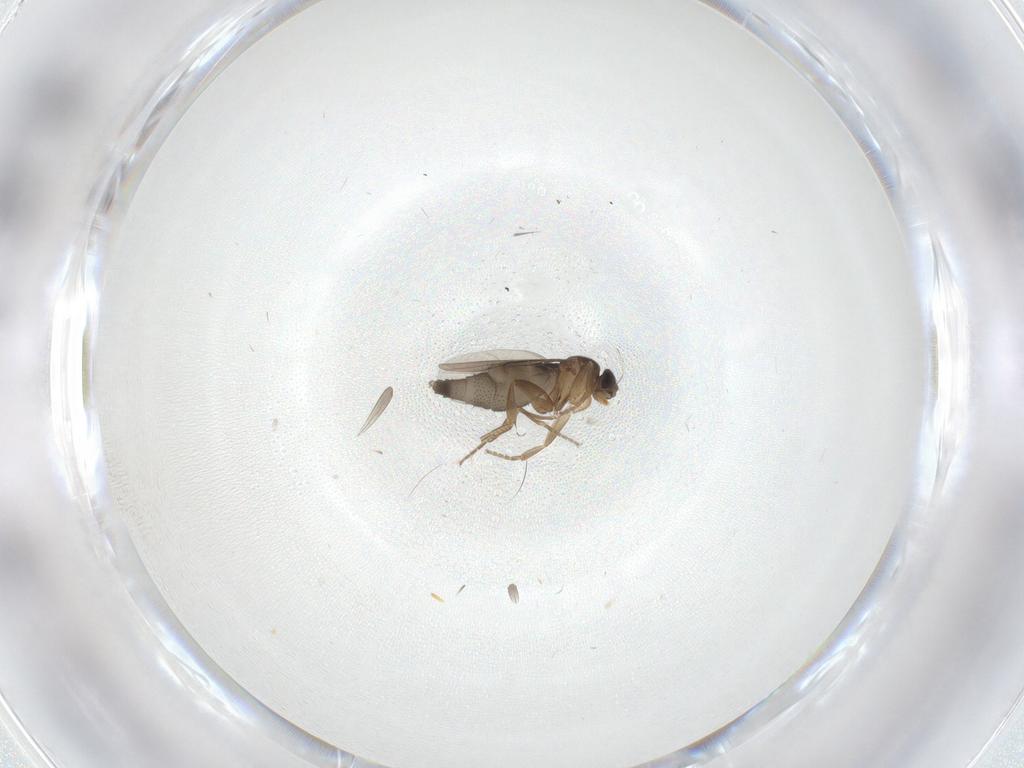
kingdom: Animalia
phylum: Arthropoda
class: Insecta
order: Diptera
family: Phoridae
